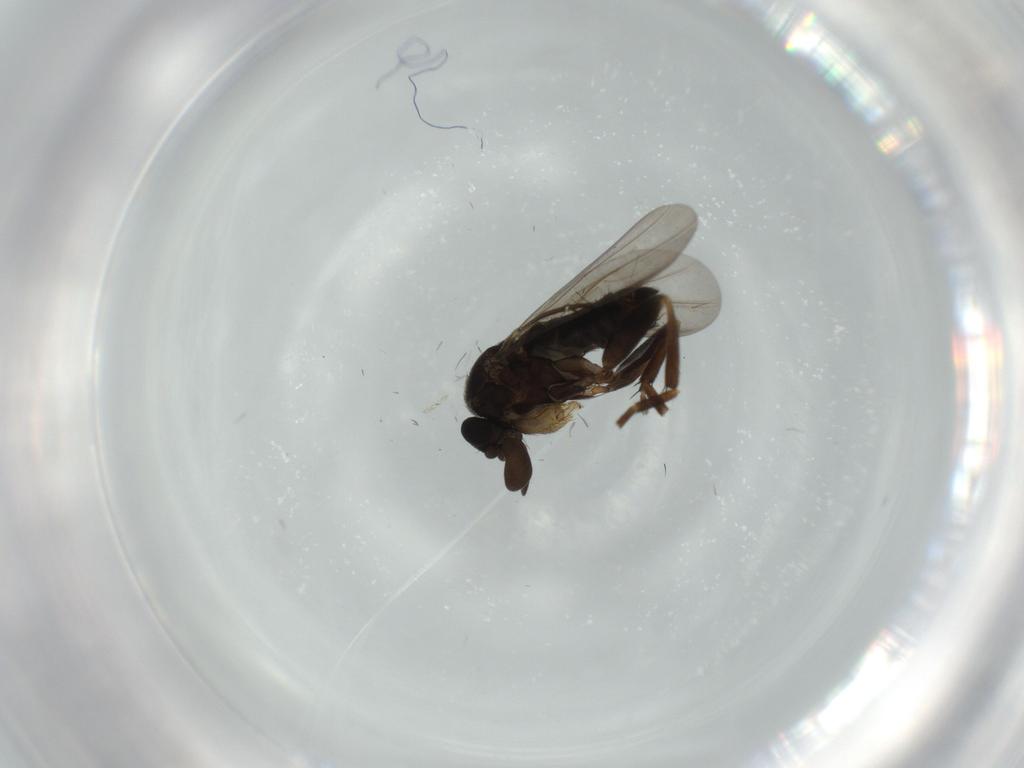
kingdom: Animalia
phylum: Arthropoda
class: Insecta
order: Diptera
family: Phoridae
